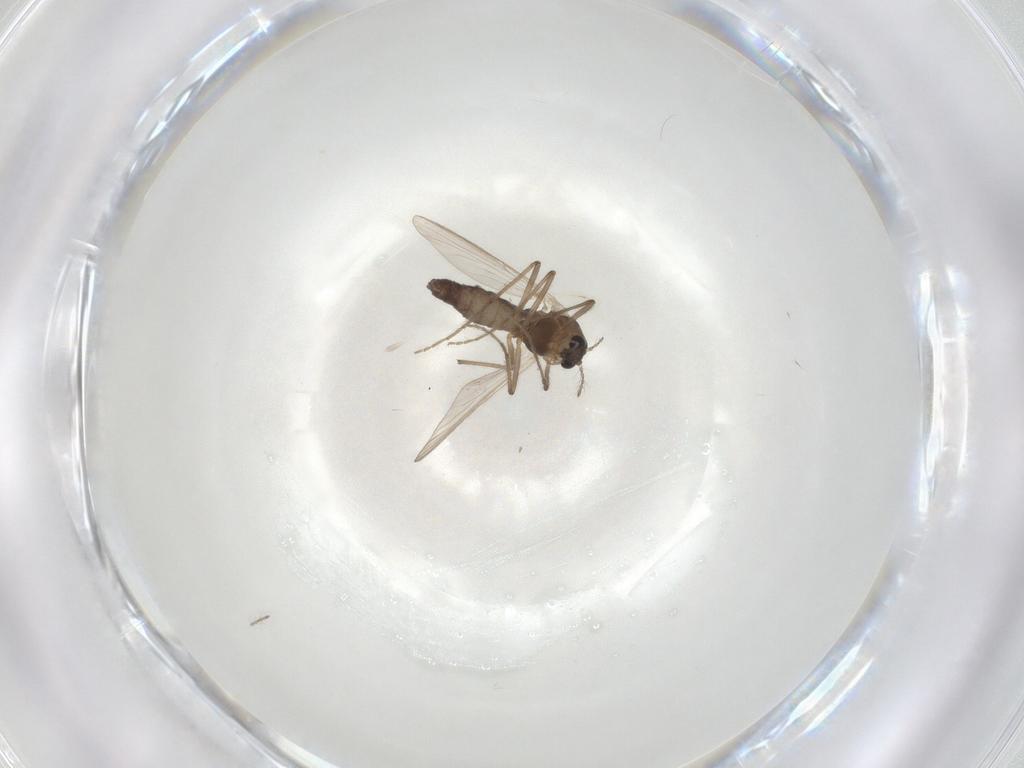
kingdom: Animalia
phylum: Arthropoda
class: Insecta
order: Diptera
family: Chironomidae
